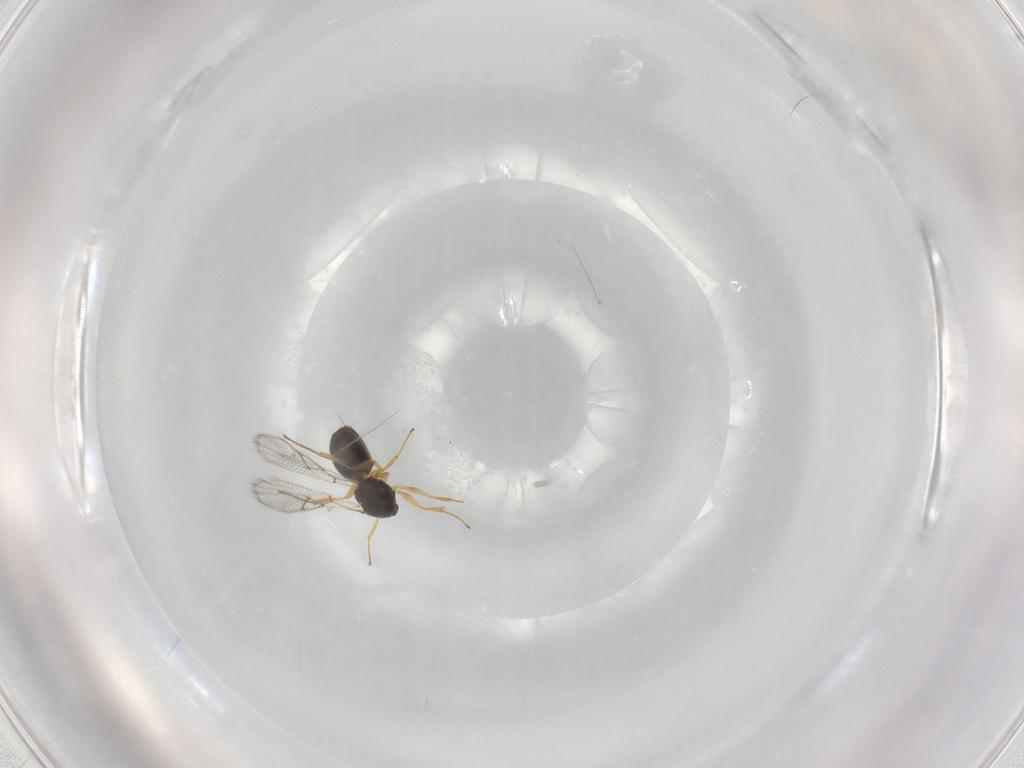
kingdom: Animalia
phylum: Arthropoda
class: Insecta
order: Hymenoptera
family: Figitidae
